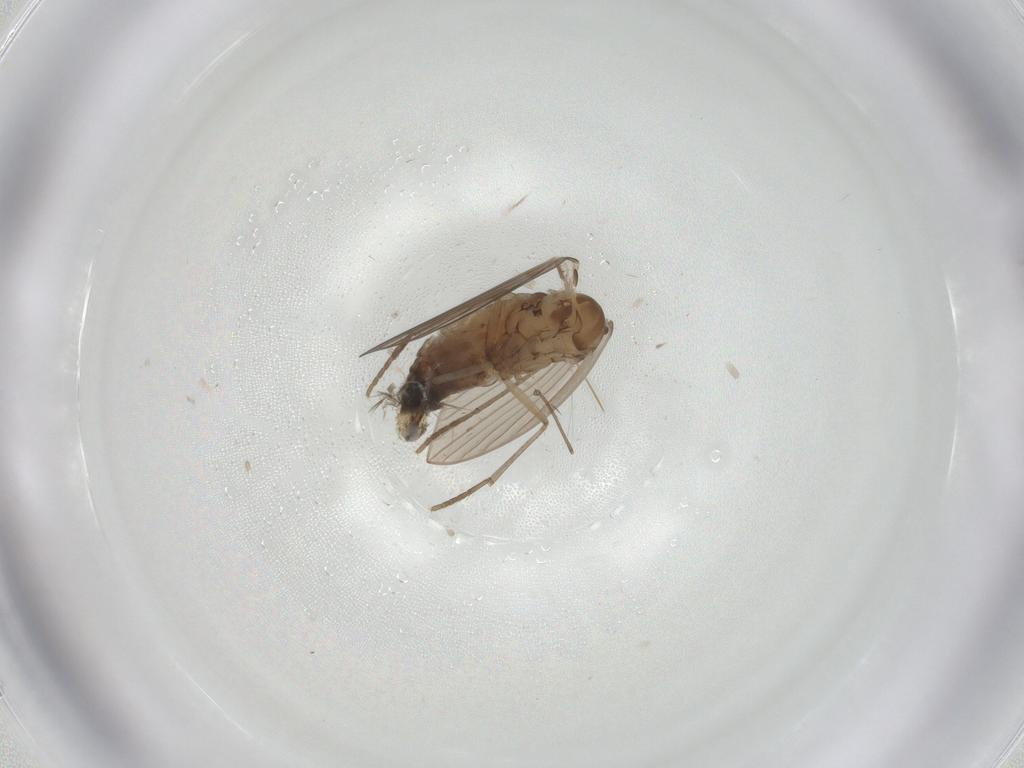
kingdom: Animalia
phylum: Arthropoda
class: Insecta
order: Diptera
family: Psychodidae
